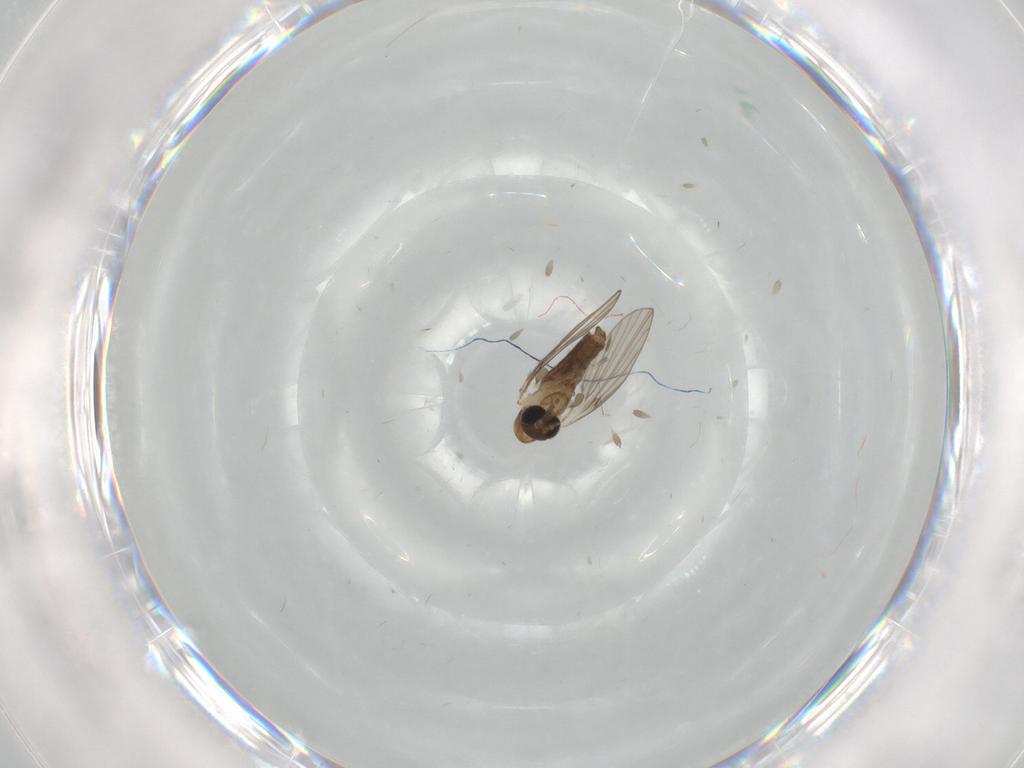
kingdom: Animalia
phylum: Arthropoda
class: Insecta
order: Diptera
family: Psychodidae
